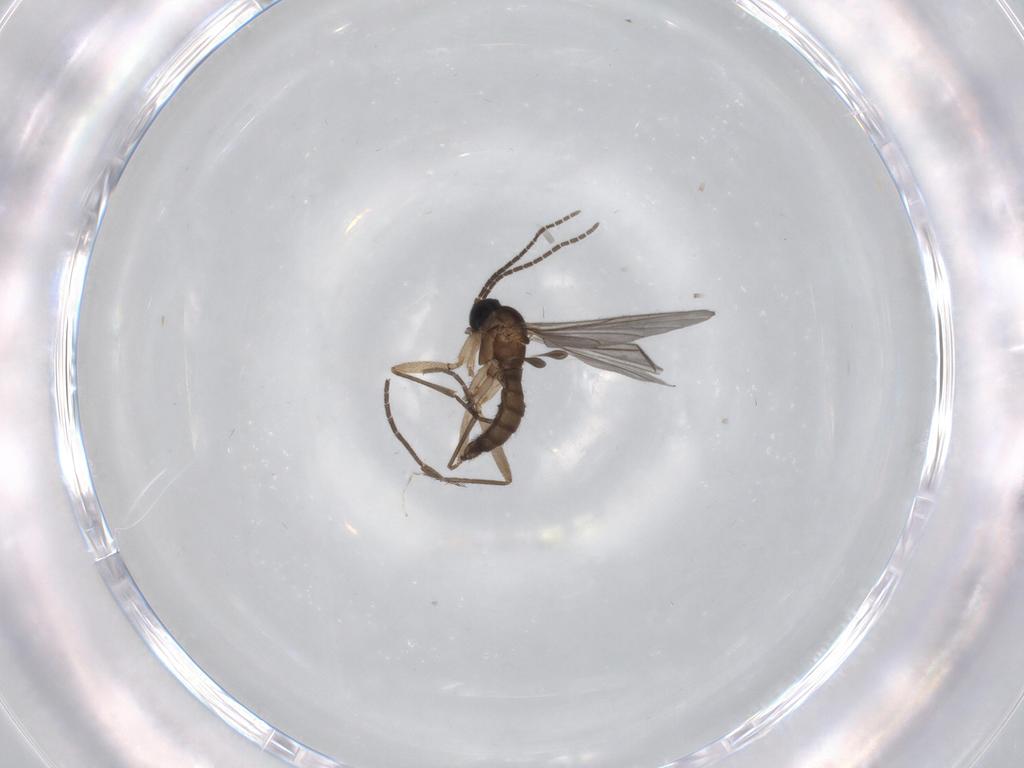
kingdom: Animalia
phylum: Arthropoda
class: Insecta
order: Diptera
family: Sciaridae
